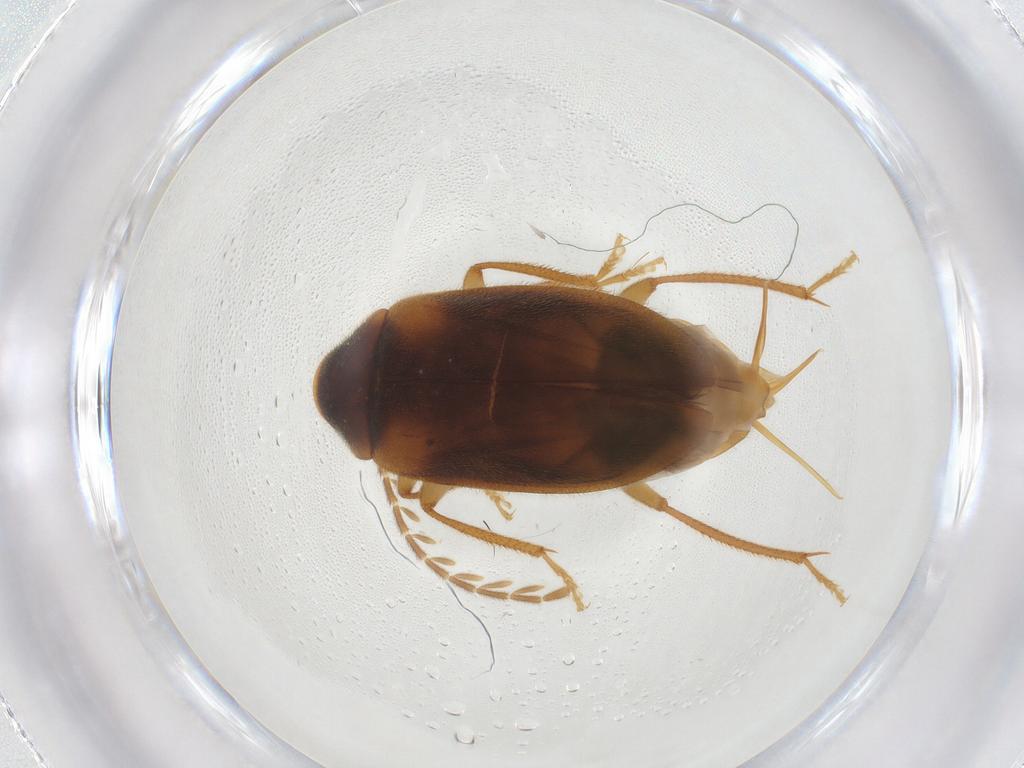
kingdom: Animalia
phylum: Arthropoda
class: Insecta
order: Coleoptera
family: Ptilodactylidae
